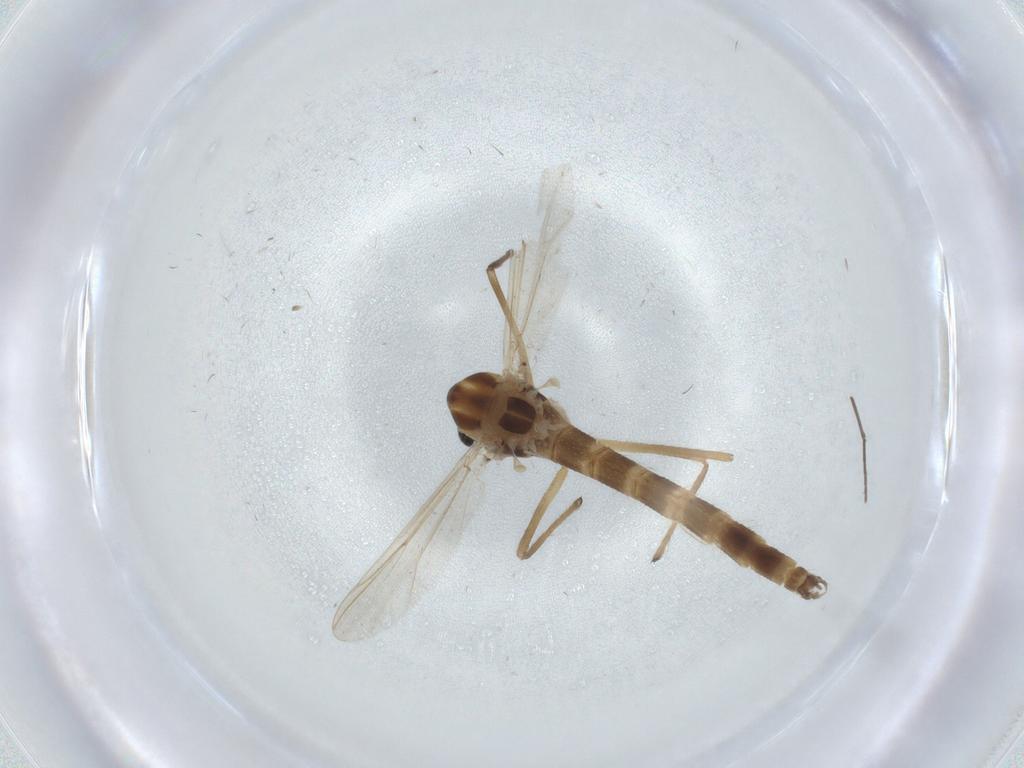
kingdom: Animalia
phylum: Arthropoda
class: Insecta
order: Diptera
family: Chironomidae
